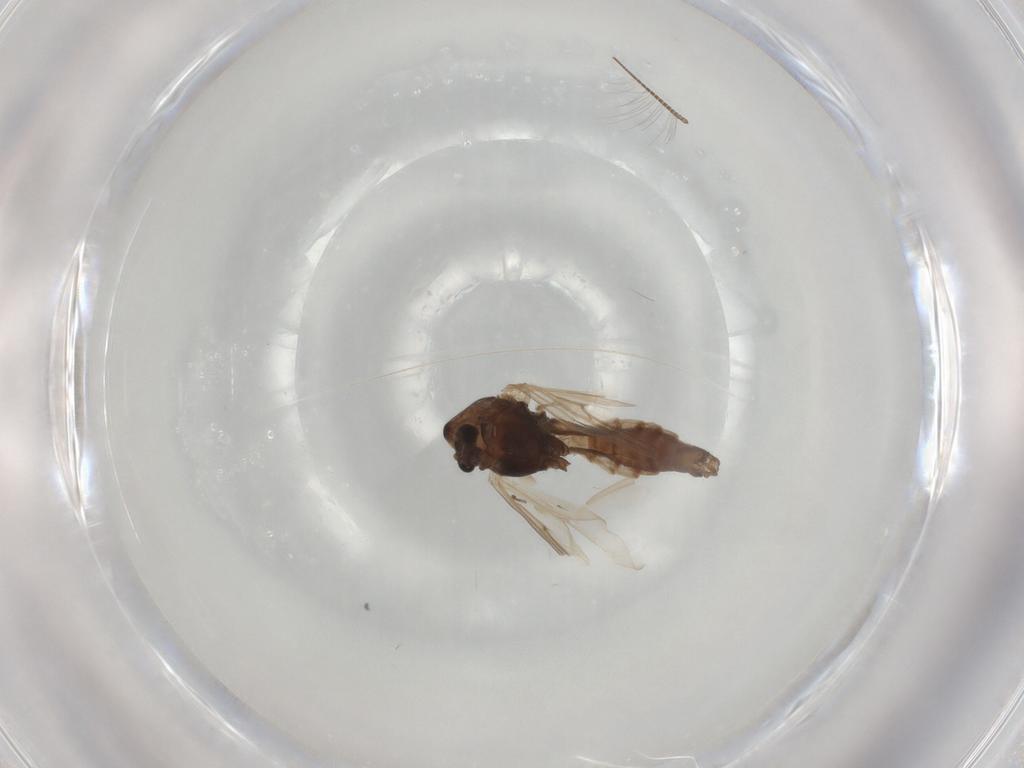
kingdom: Animalia
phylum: Arthropoda
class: Insecta
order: Diptera
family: Chironomidae
